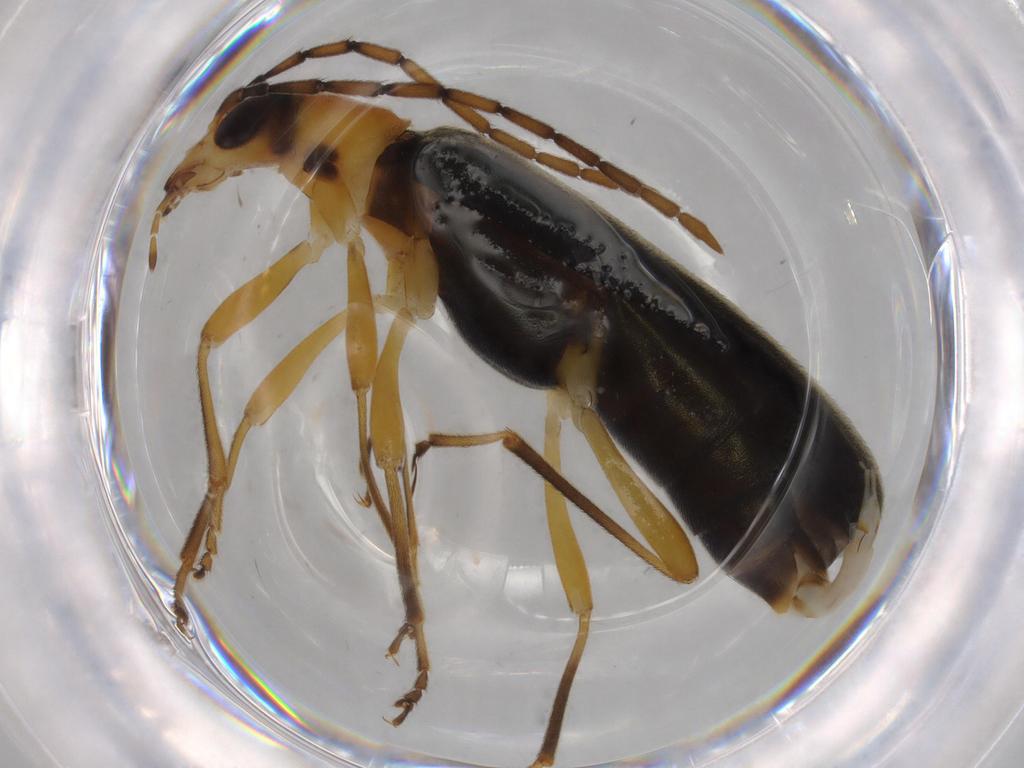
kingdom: Animalia
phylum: Arthropoda
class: Insecta
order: Coleoptera
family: Oedemeridae
